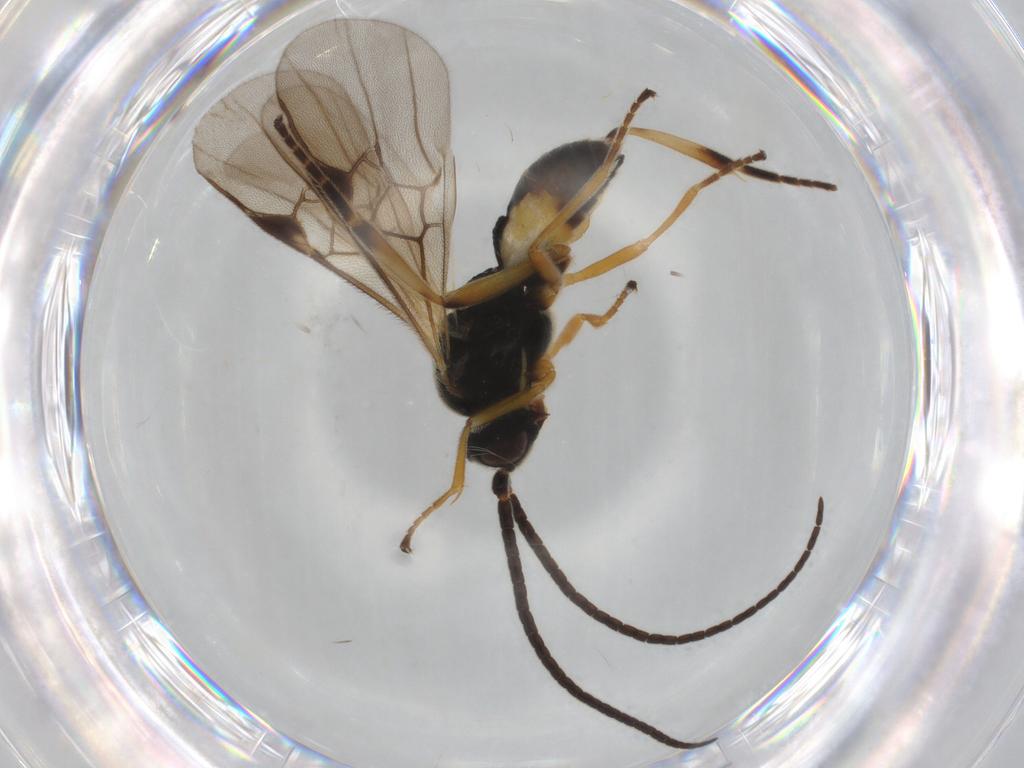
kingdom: Animalia
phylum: Arthropoda
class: Insecta
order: Hymenoptera
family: Braconidae
